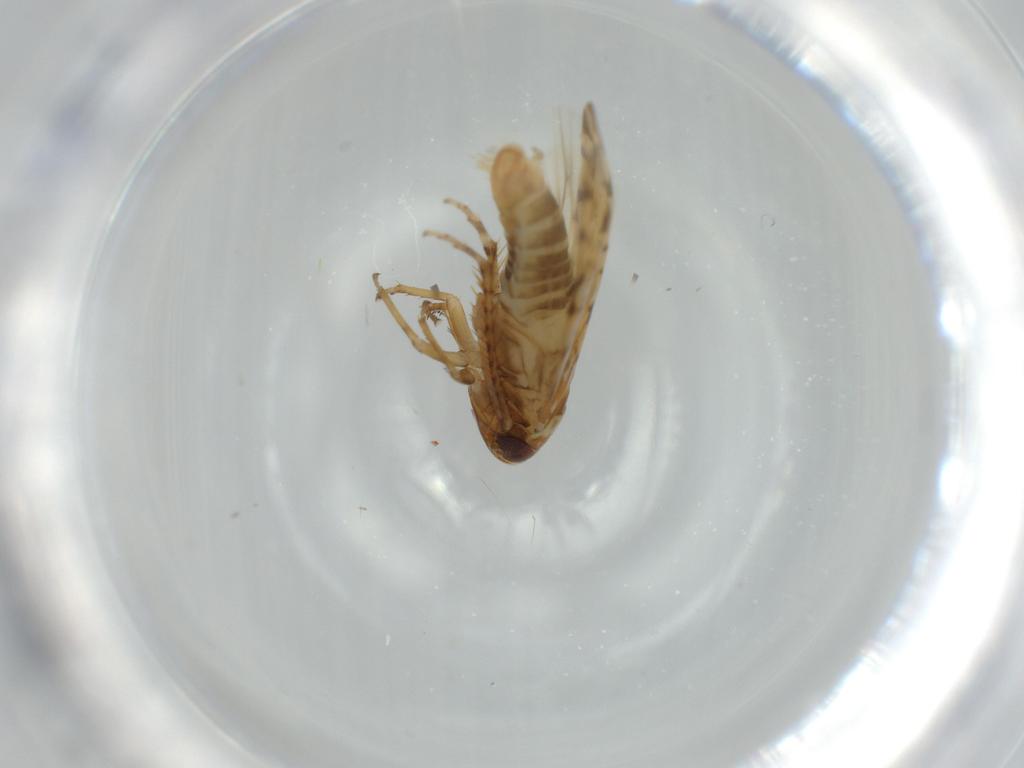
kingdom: Animalia
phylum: Arthropoda
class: Insecta
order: Hemiptera
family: Cicadellidae
